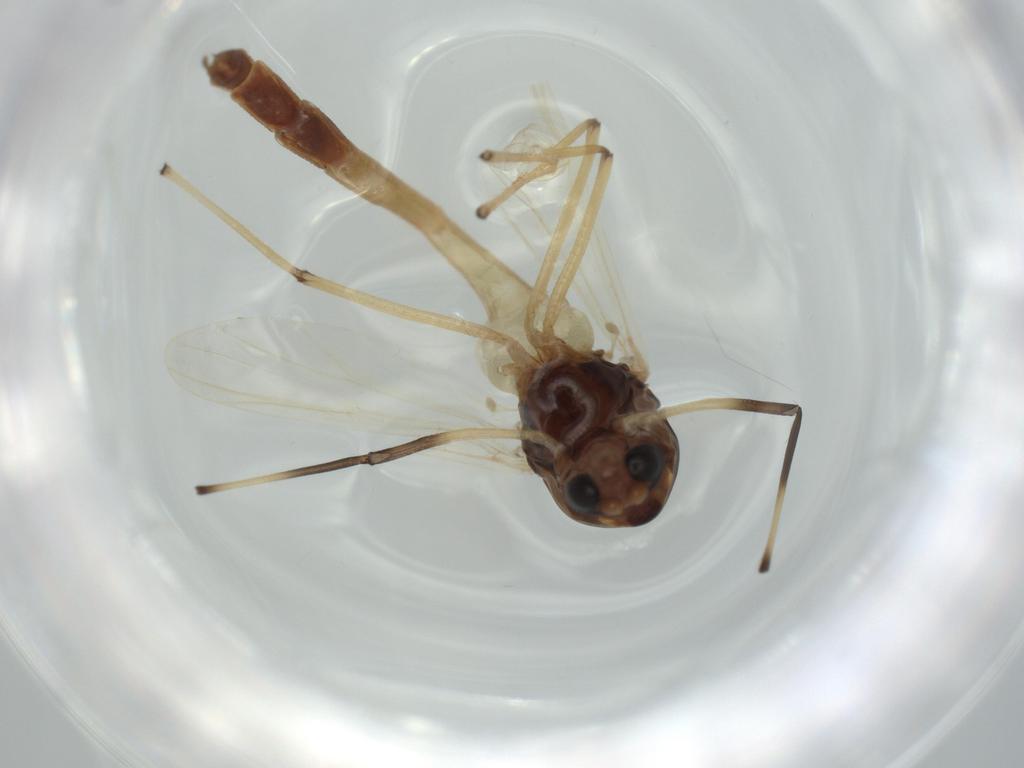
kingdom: Animalia
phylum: Arthropoda
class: Insecta
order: Diptera
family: Chironomidae
